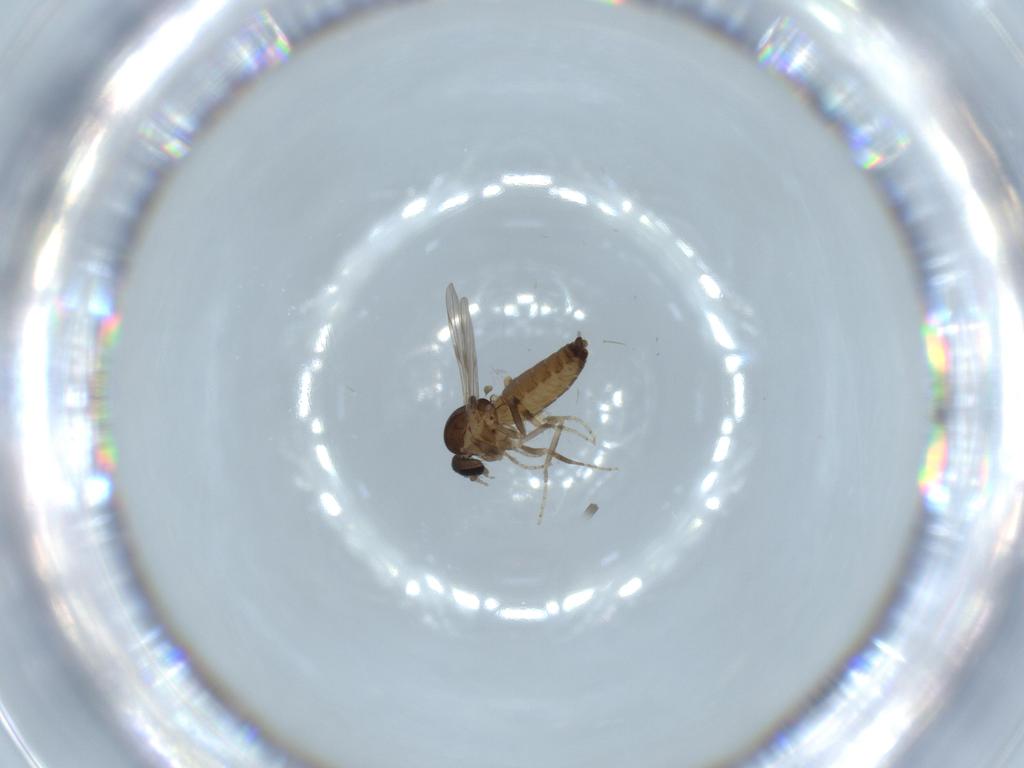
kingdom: Animalia
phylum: Arthropoda
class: Insecta
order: Diptera
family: Ceratopogonidae
